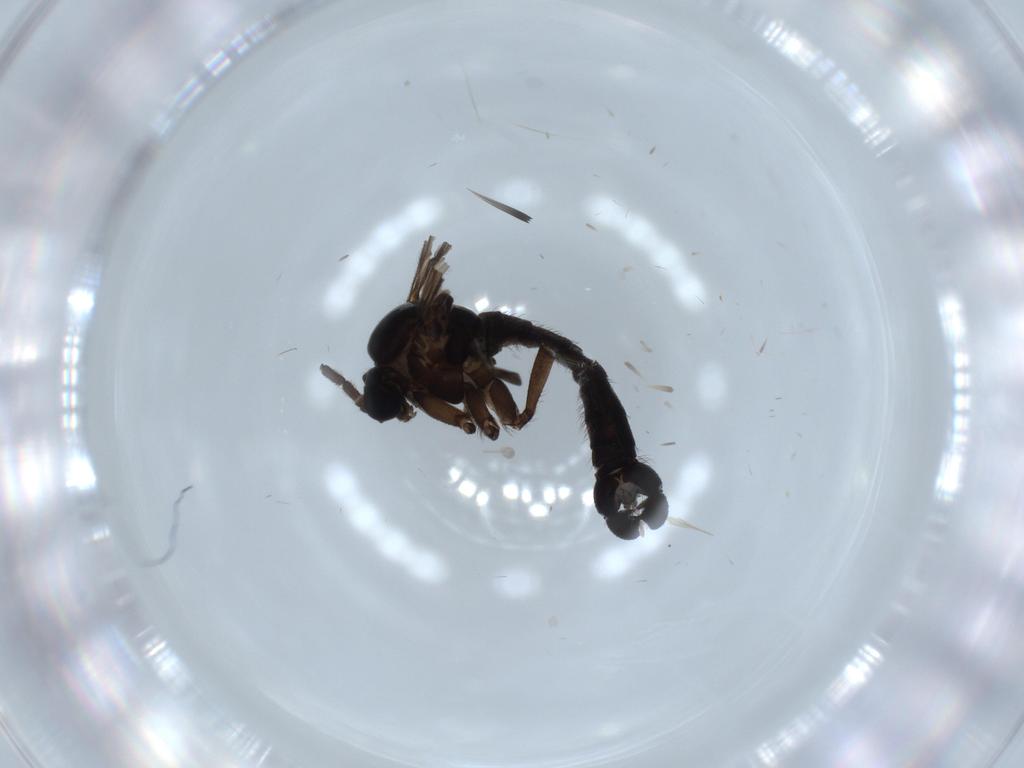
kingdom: Animalia
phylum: Arthropoda
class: Insecta
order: Diptera
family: Sciaridae
